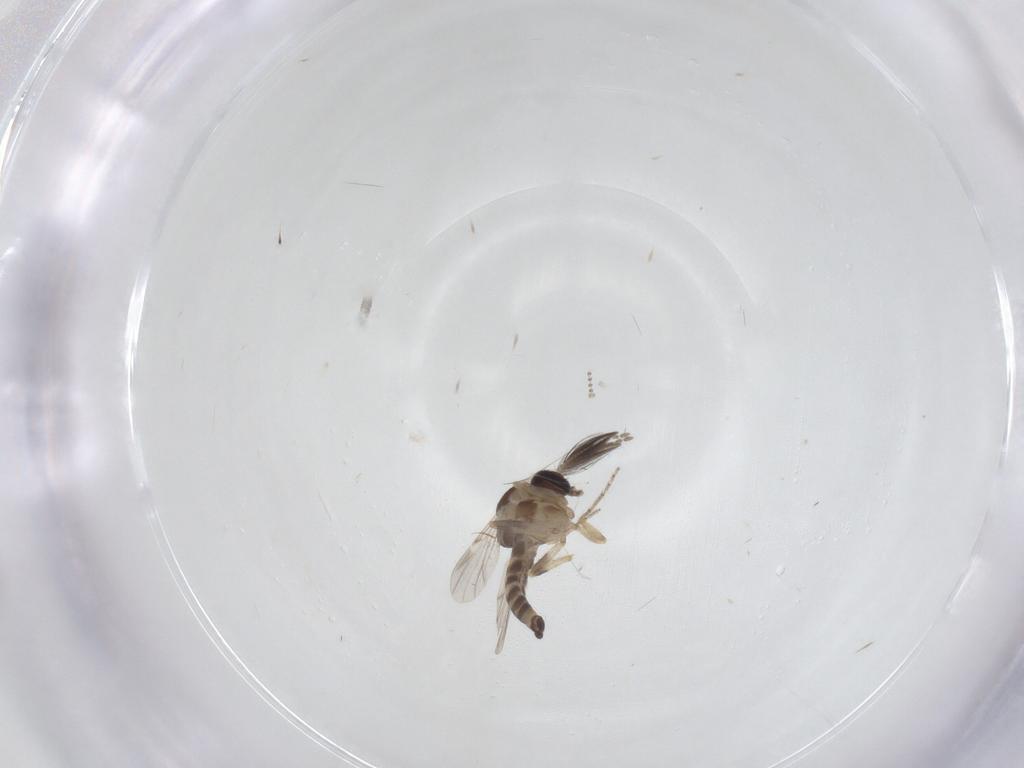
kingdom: Animalia
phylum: Arthropoda
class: Insecta
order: Diptera
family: Ceratopogonidae
